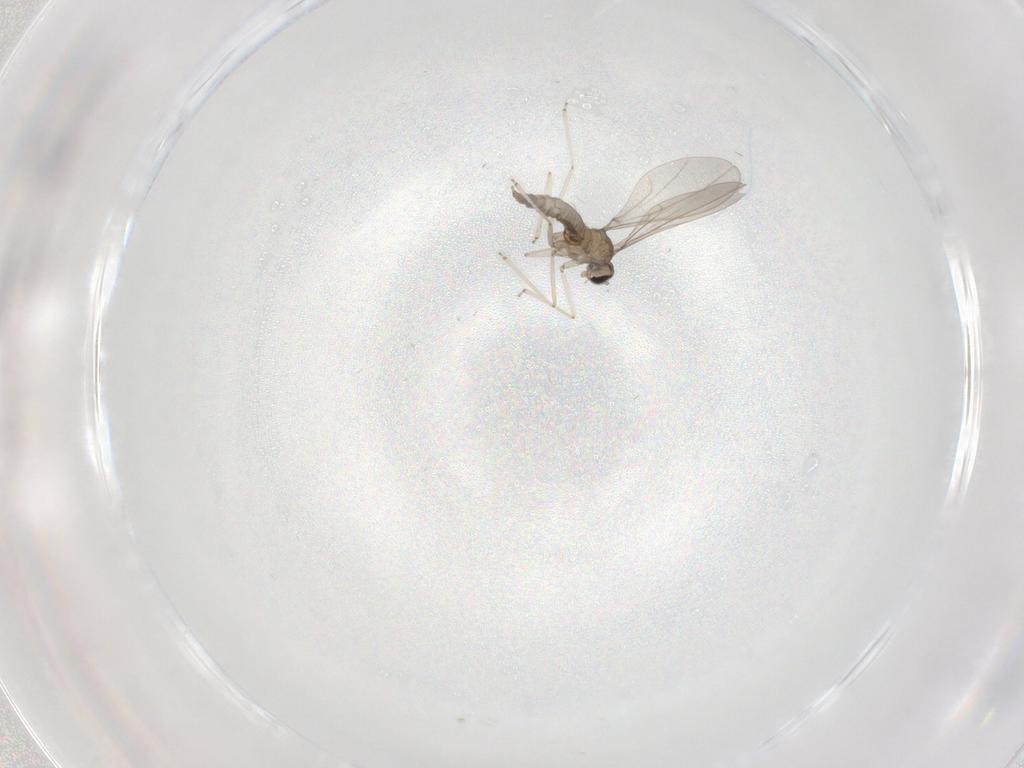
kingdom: Animalia
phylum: Arthropoda
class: Insecta
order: Diptera
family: Cecidomyiidae
